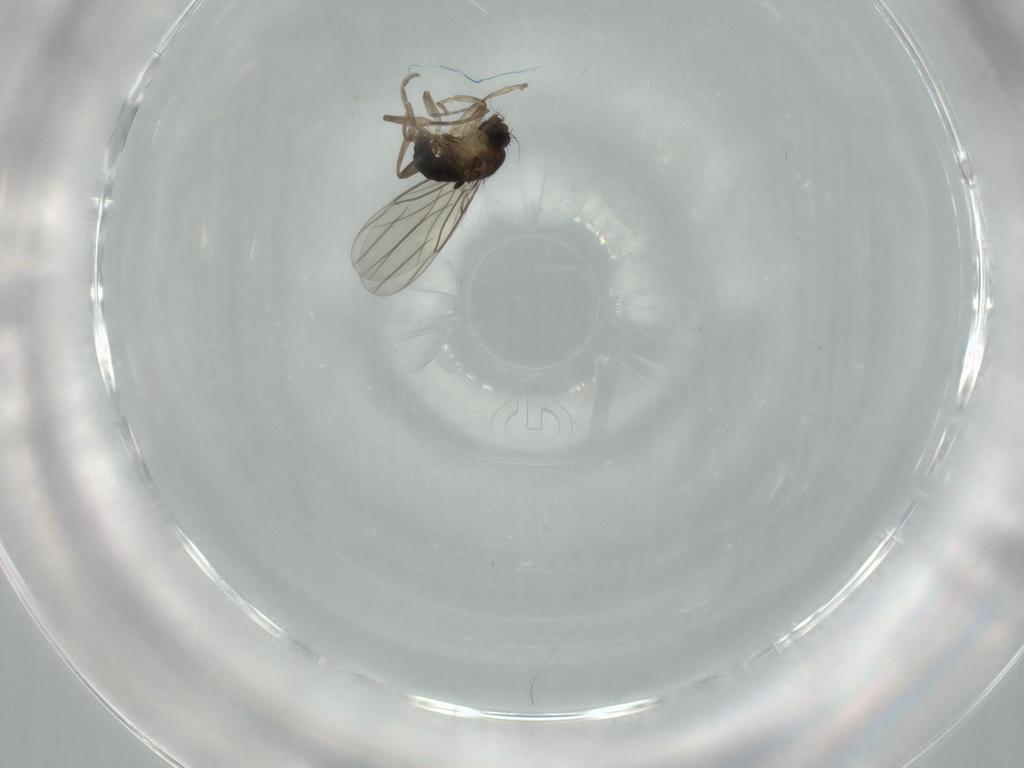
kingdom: Animalia
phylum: Arthropoda
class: Insecta
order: Diptera
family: Phoridae
